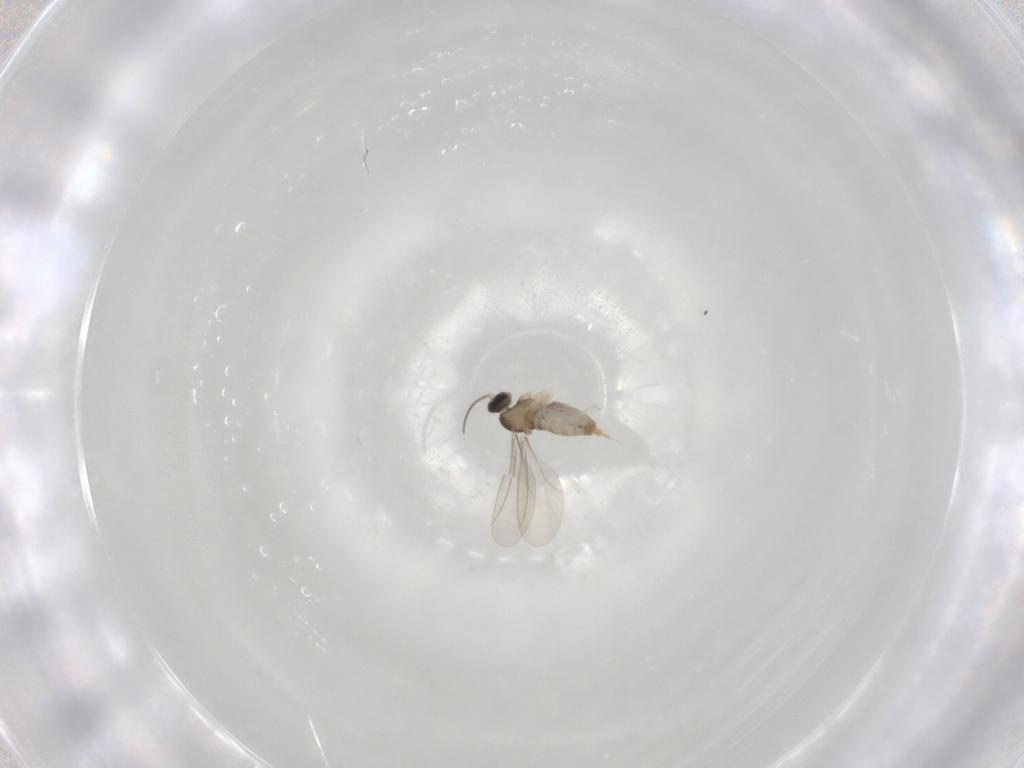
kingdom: Animalia
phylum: Arthropoda
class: Insecta
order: Diptera
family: Cecidomyiidae
